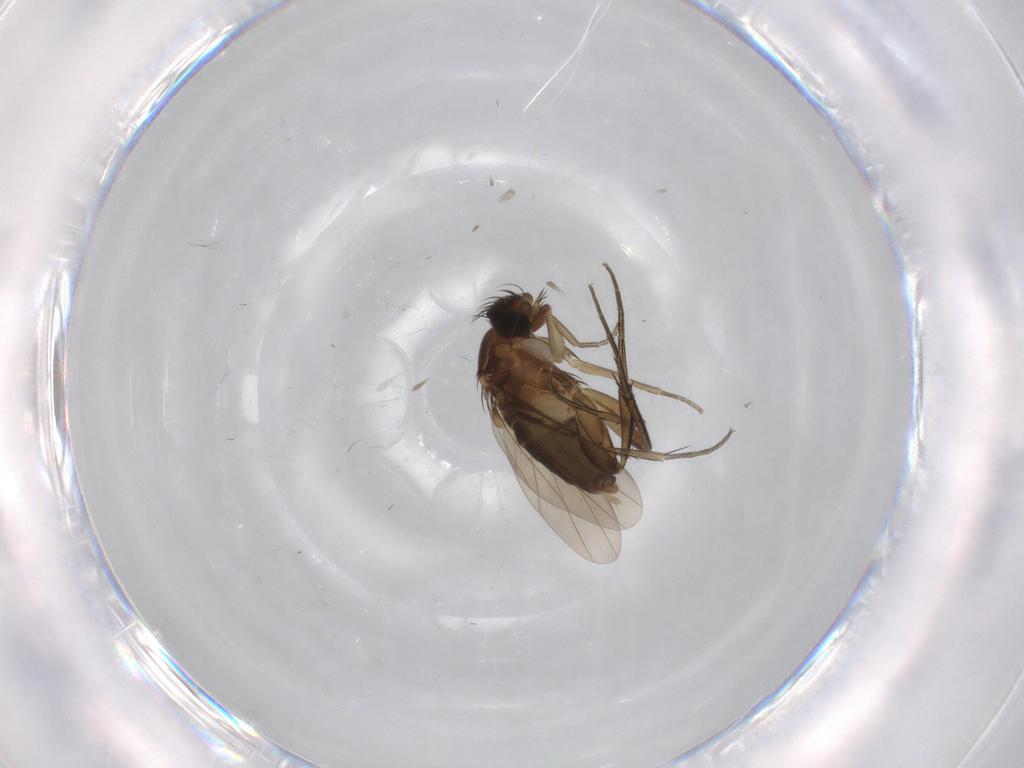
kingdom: Animalia
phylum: Arthropoda
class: Insecta
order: Diptera
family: Phoridae
